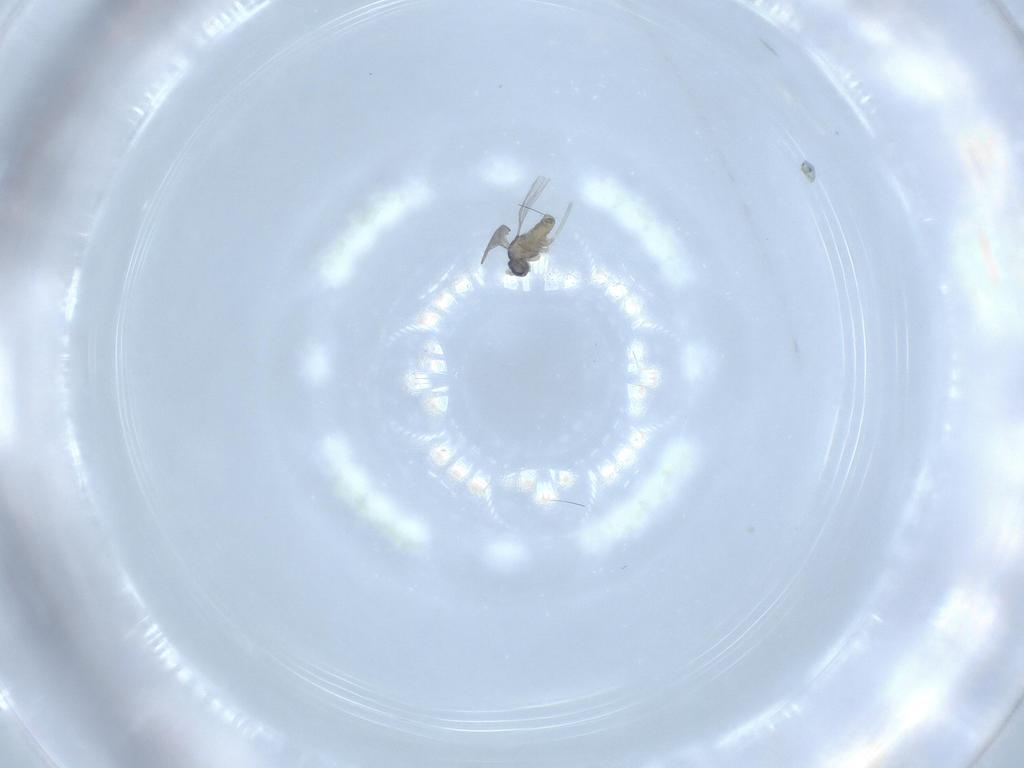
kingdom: Animalia
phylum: Arthropoda
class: Insecta
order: Diptera
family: Cecidomyiidae
